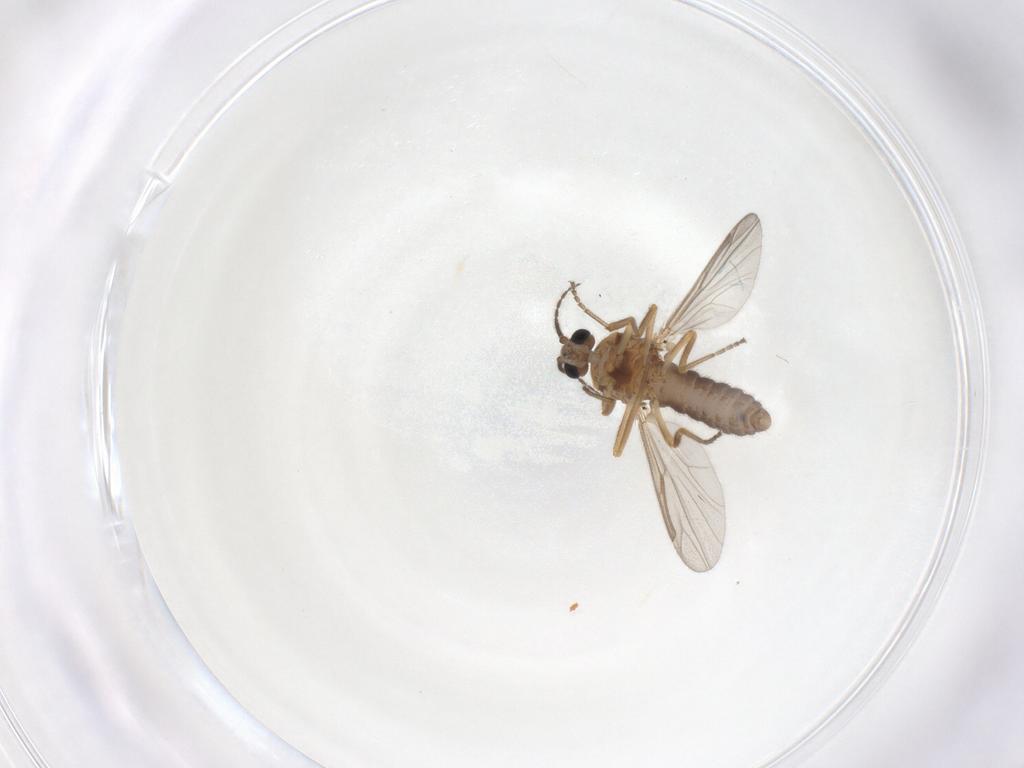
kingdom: Animalia
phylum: Arthropoda
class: Insecta
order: Diptera
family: Ceratopogonidae
